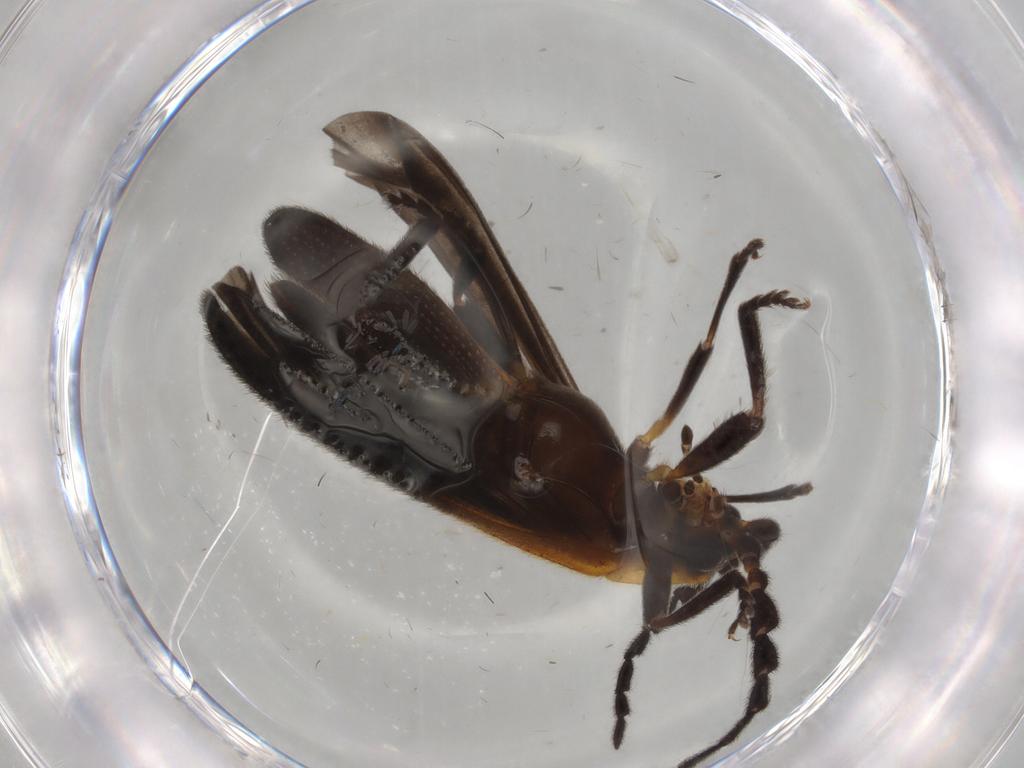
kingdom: Animalia
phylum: Arthropoda
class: Insecta
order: Coleoptera
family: Lycidae
